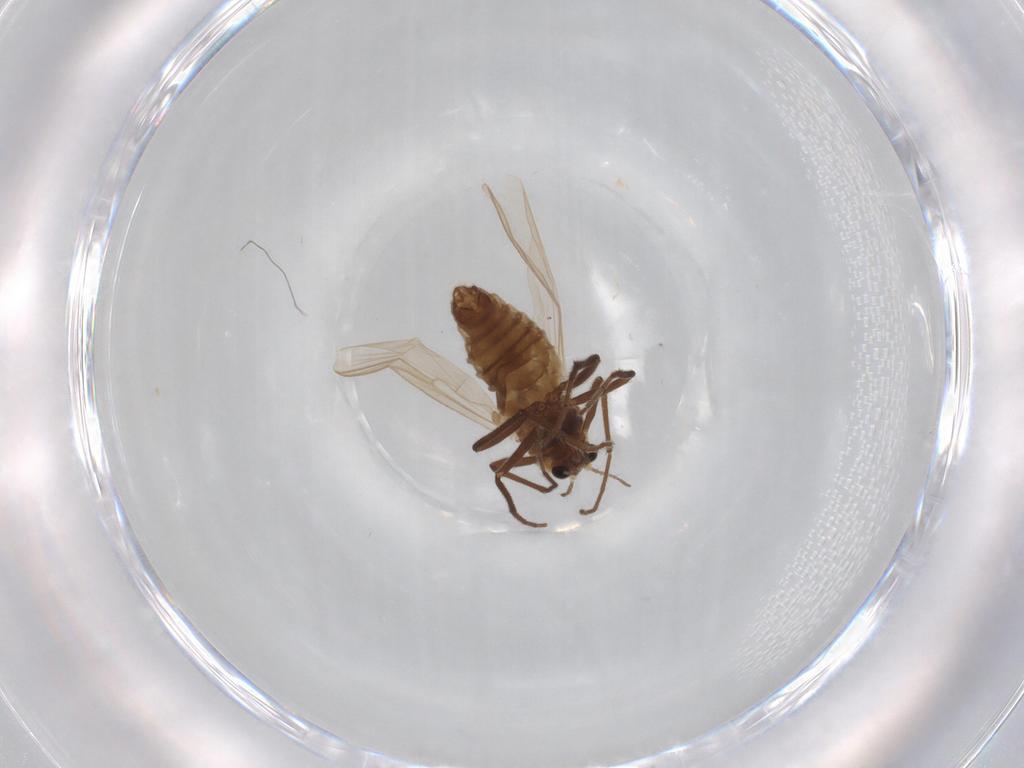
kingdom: Animalia
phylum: Arthropoda
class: Insecta
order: Diptera
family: Chironomidae
